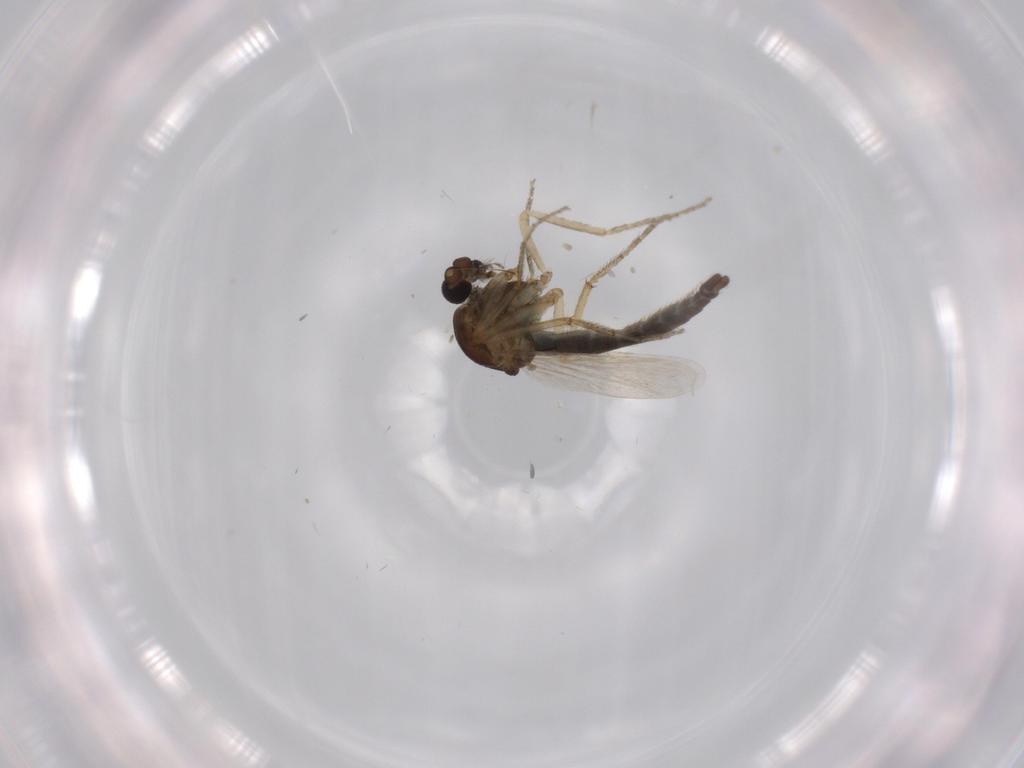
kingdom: Animalia
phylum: Arthropoda
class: Insecta
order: Diptera
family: Ceratopogonidae
